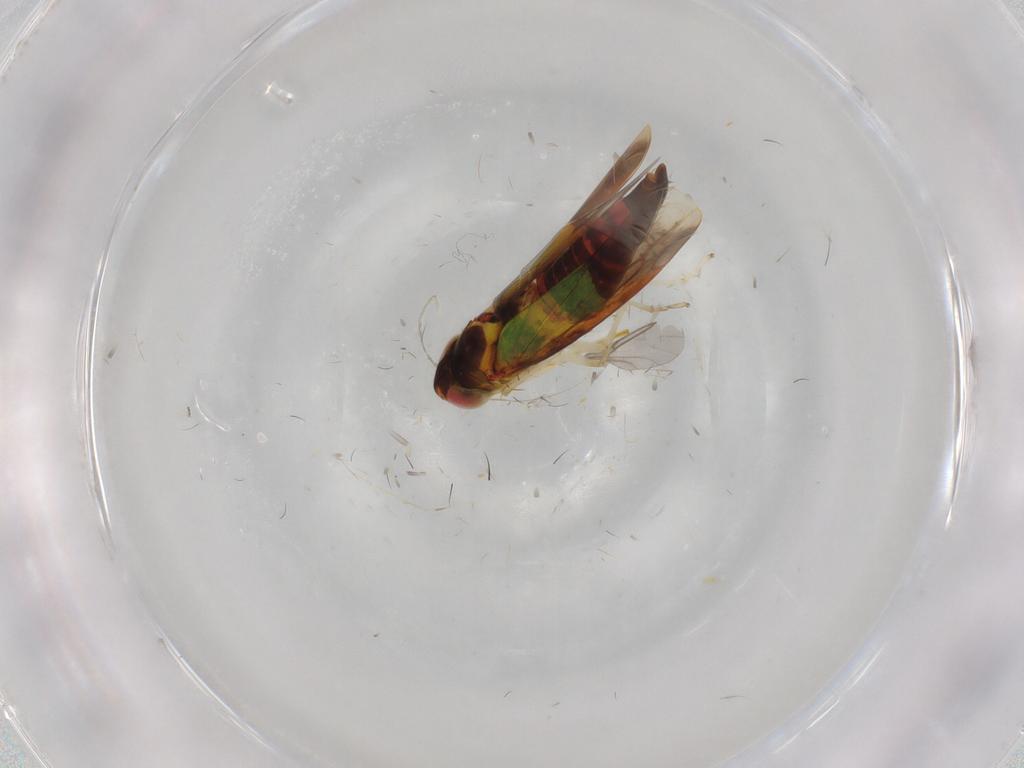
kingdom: Animalia
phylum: Arthropoda
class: Insecta
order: Hemiptera
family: Cicadellidae
